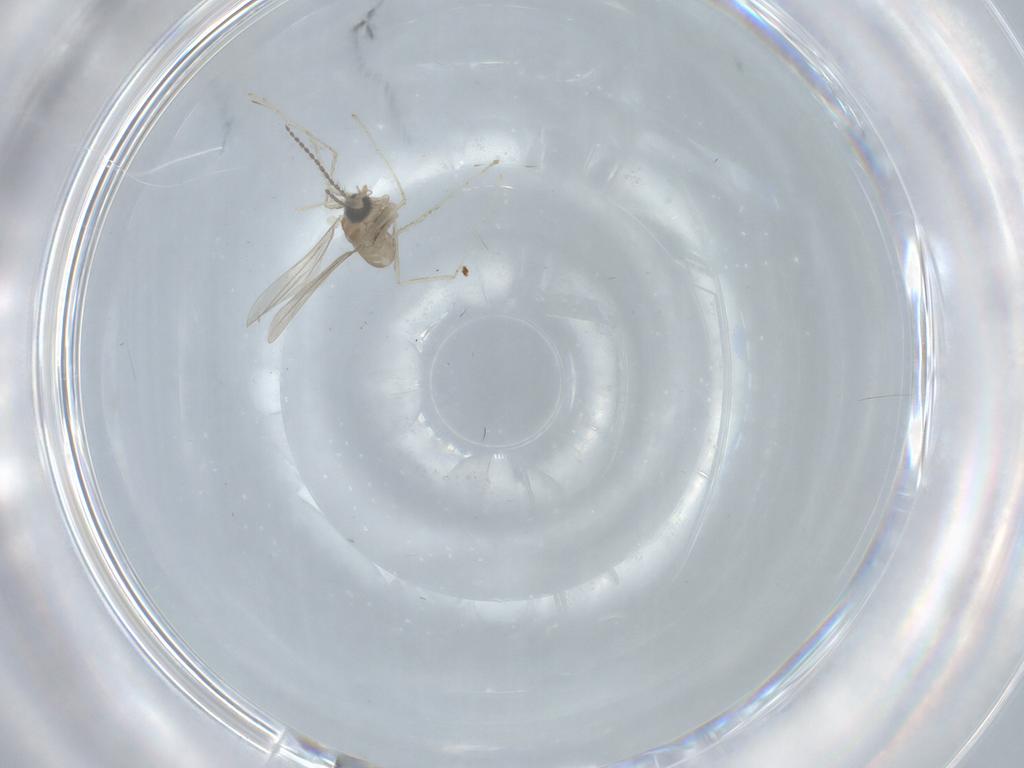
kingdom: Animalia
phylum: Arthropoda
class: Insecta
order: Diptera
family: Cecidomyiidae
